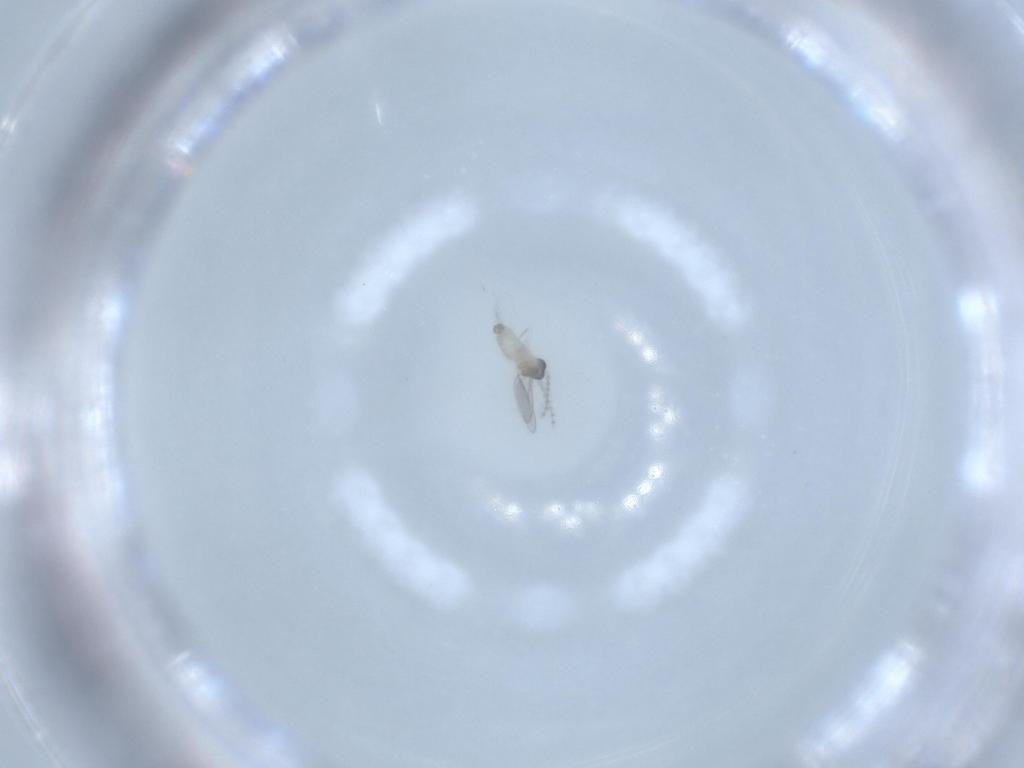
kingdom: Animalia
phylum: Arthropoda
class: Insecta
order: Diptera
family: Cecidomyiidae
